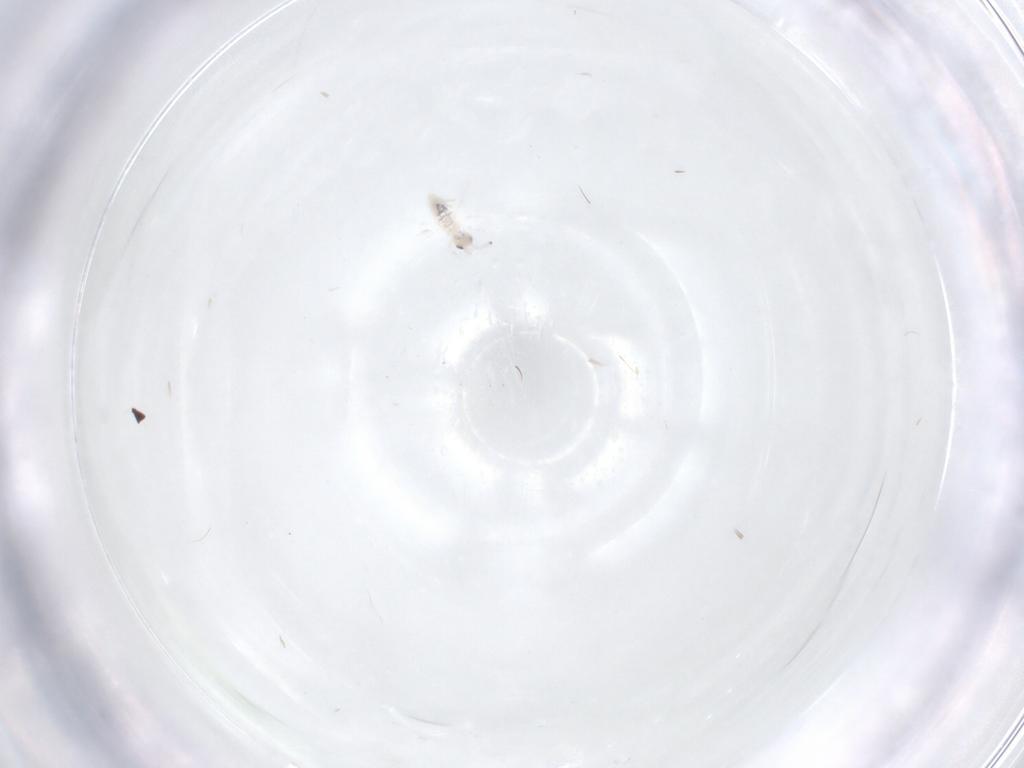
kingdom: Animalia
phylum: Arthropoda
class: Collembola
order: Entomobryomorpha
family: Paronellidae
